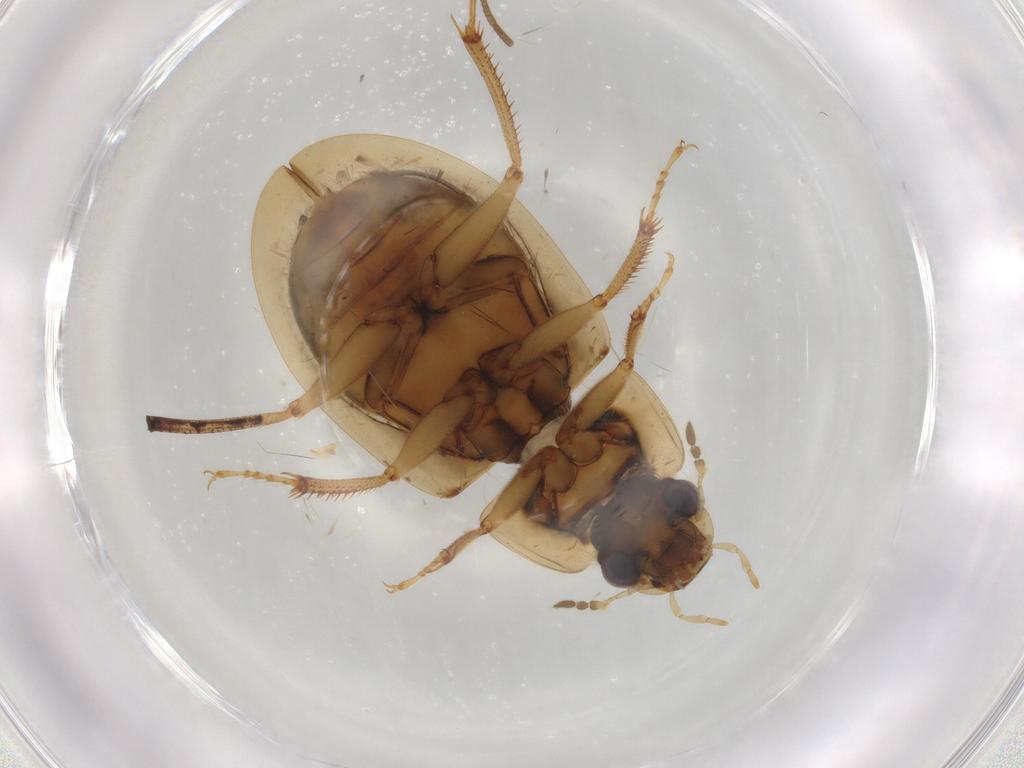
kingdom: Animalia
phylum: Arthropoda
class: Insecta
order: Coleoptera
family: Hydrophilidae
